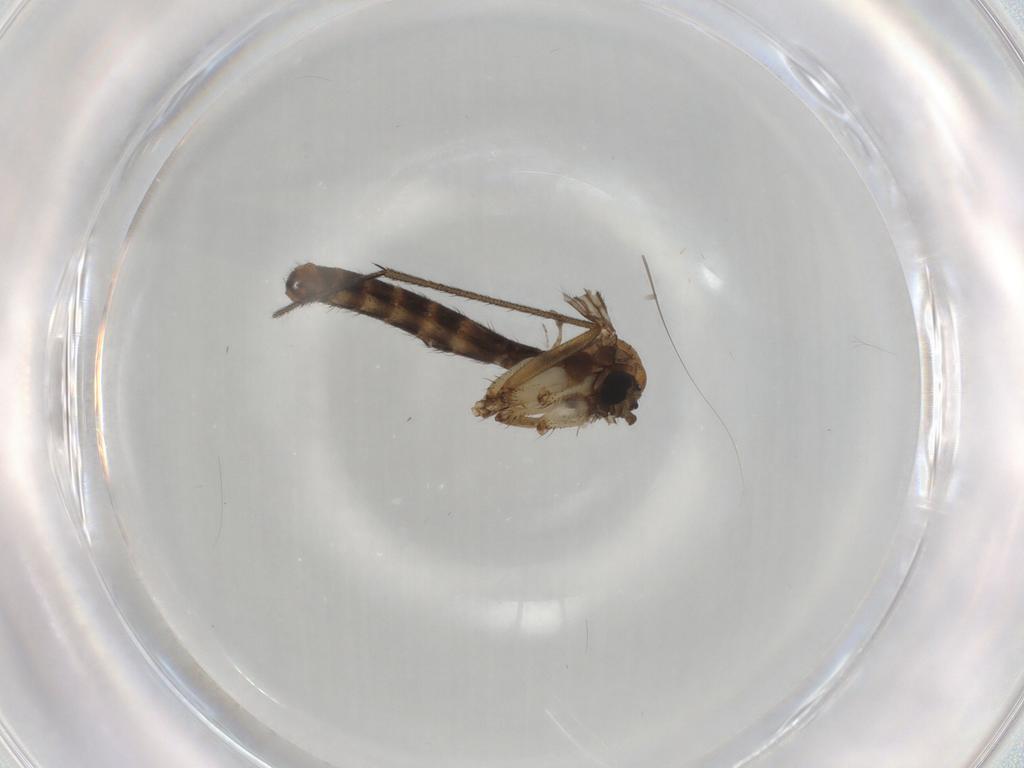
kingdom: Animalia
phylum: Arthropoda
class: Insecta
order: Diptera
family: Ditomyiidae
